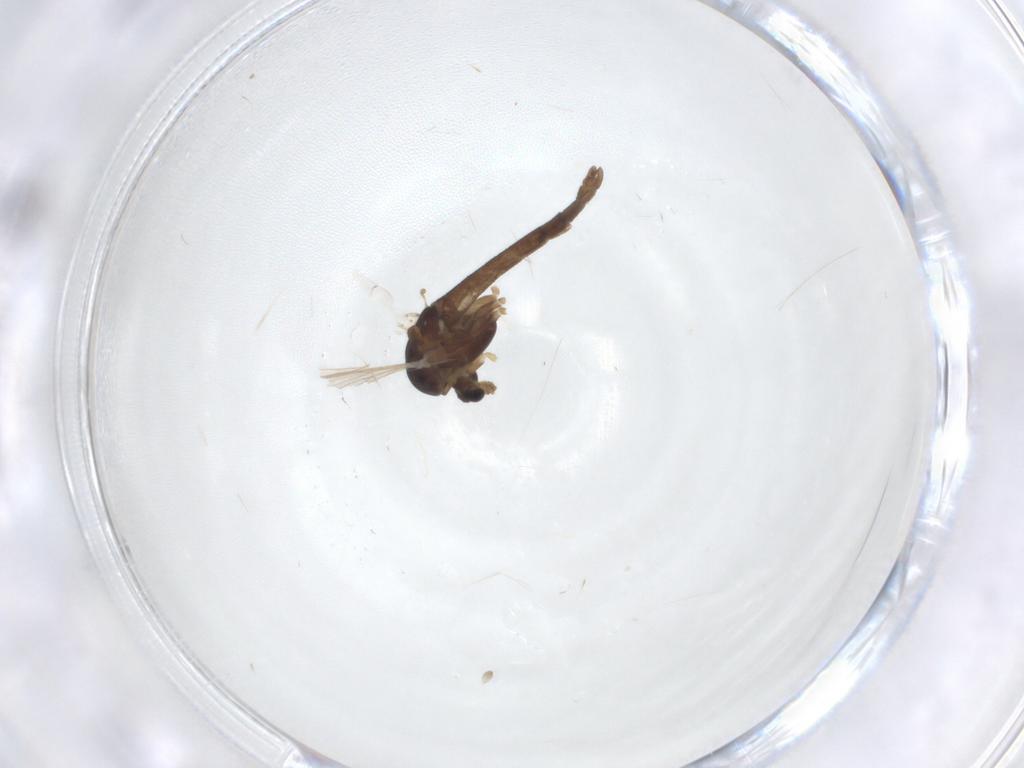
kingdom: Animalia
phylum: Arthropoda
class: Insecta
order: Diptera
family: Chironomidae
